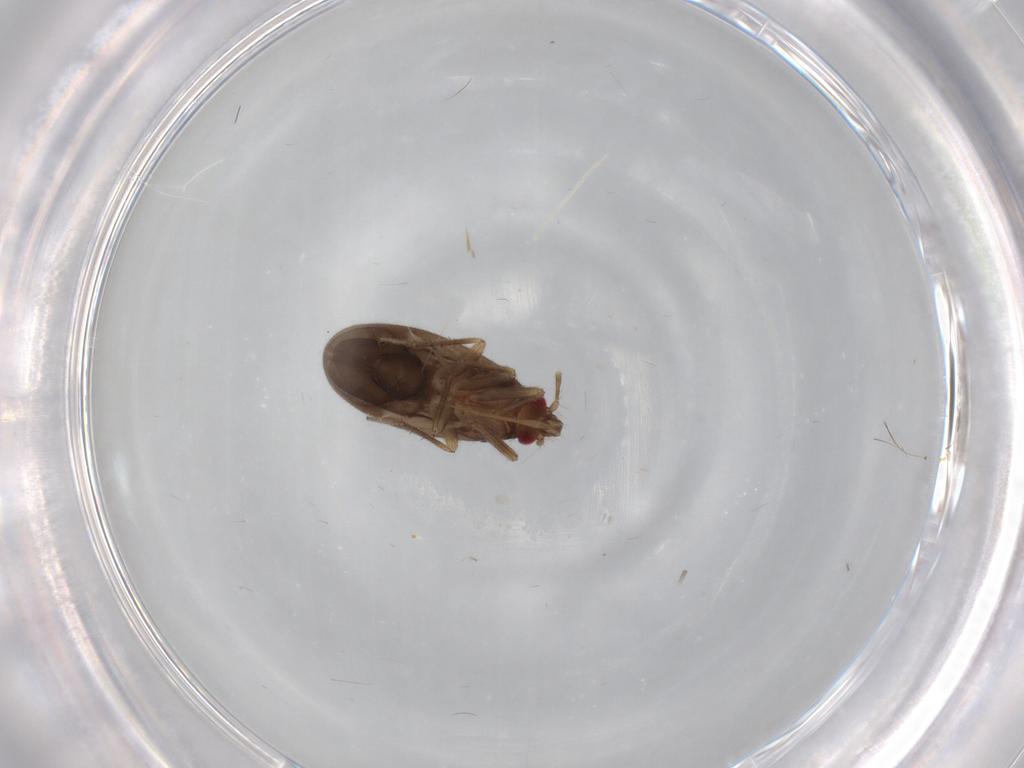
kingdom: Animalia
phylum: Arthropoda
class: Insecta
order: Hemiptera
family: Ceratocombidae
